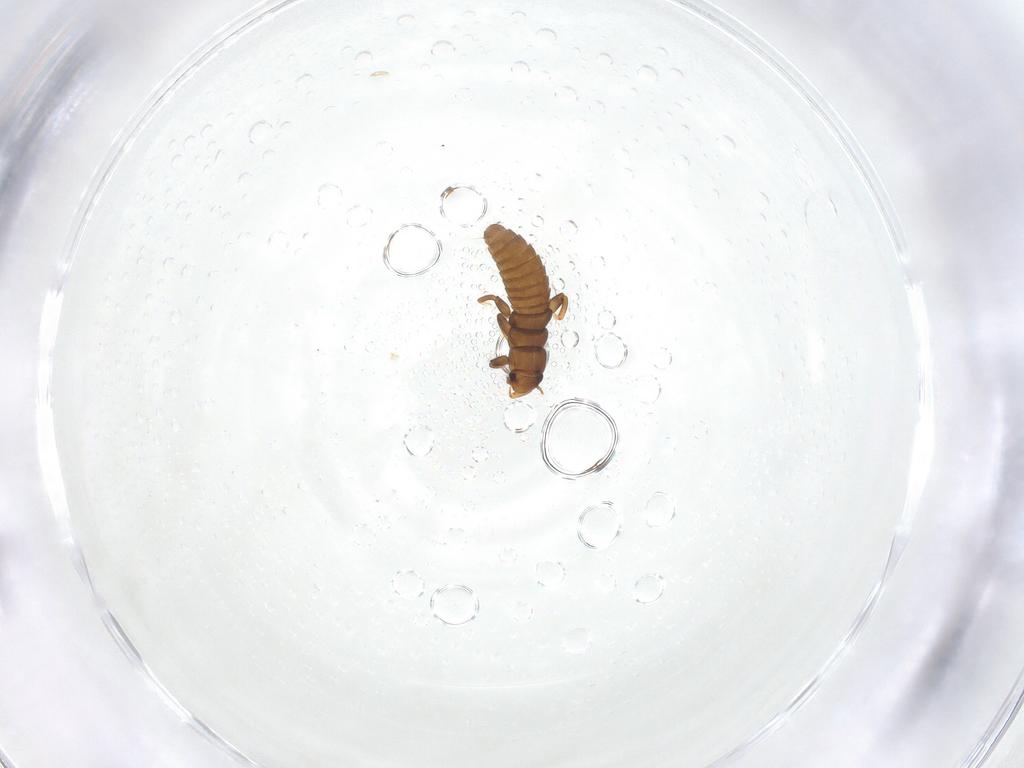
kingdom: Animalia
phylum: Arthropoda
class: Insecta
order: Coleoptera
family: Meloidae
